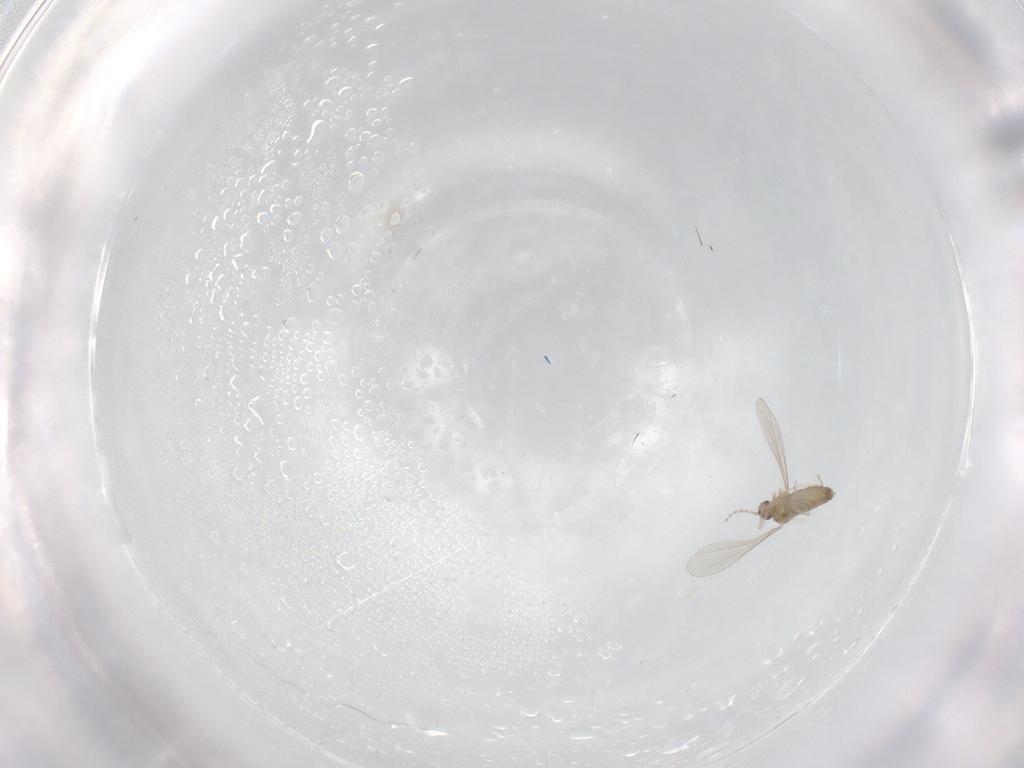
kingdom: Animalia
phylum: Arthropoda
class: Insecta
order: Diptera
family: Cecidomyiidae
